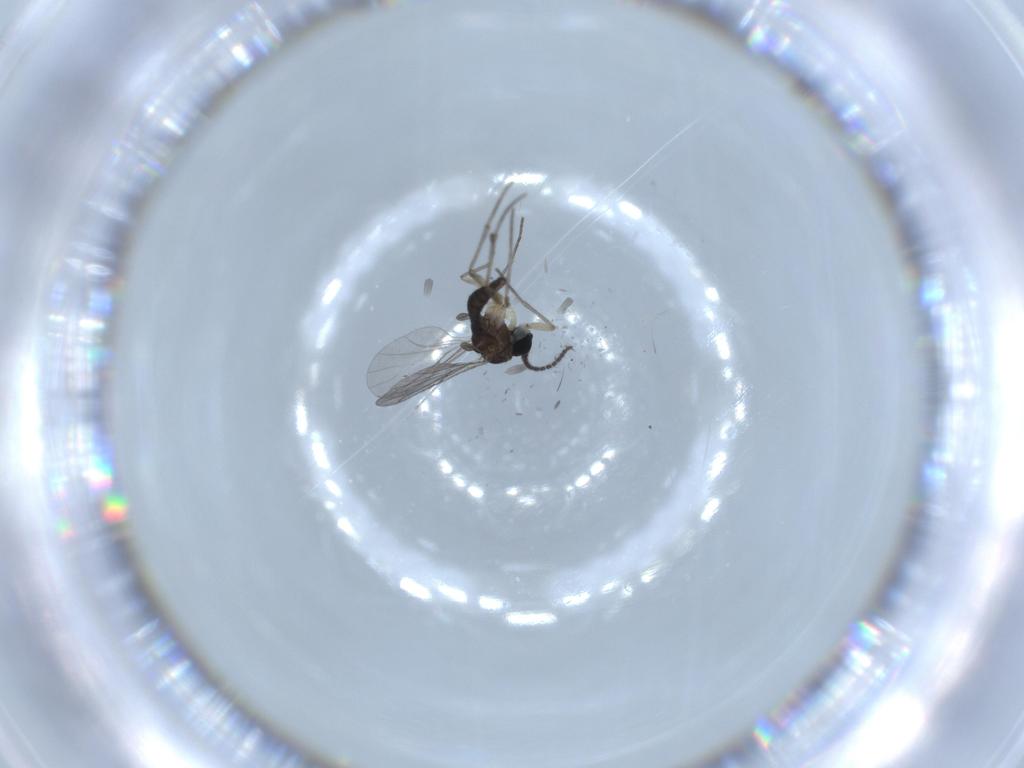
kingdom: Animalia
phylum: Arthropoda
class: Insecta
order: Diptera
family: Sciaridae
